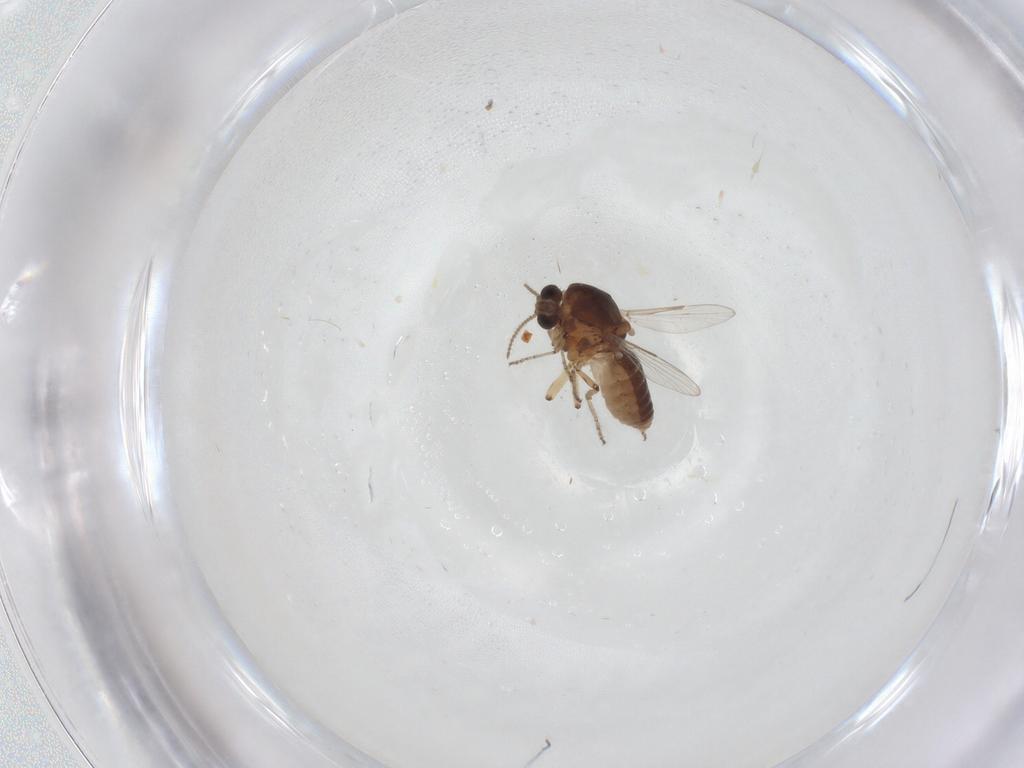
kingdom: Animalia
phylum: Arthropoda
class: Insecta
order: Diptera
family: Ceratopogonidae
